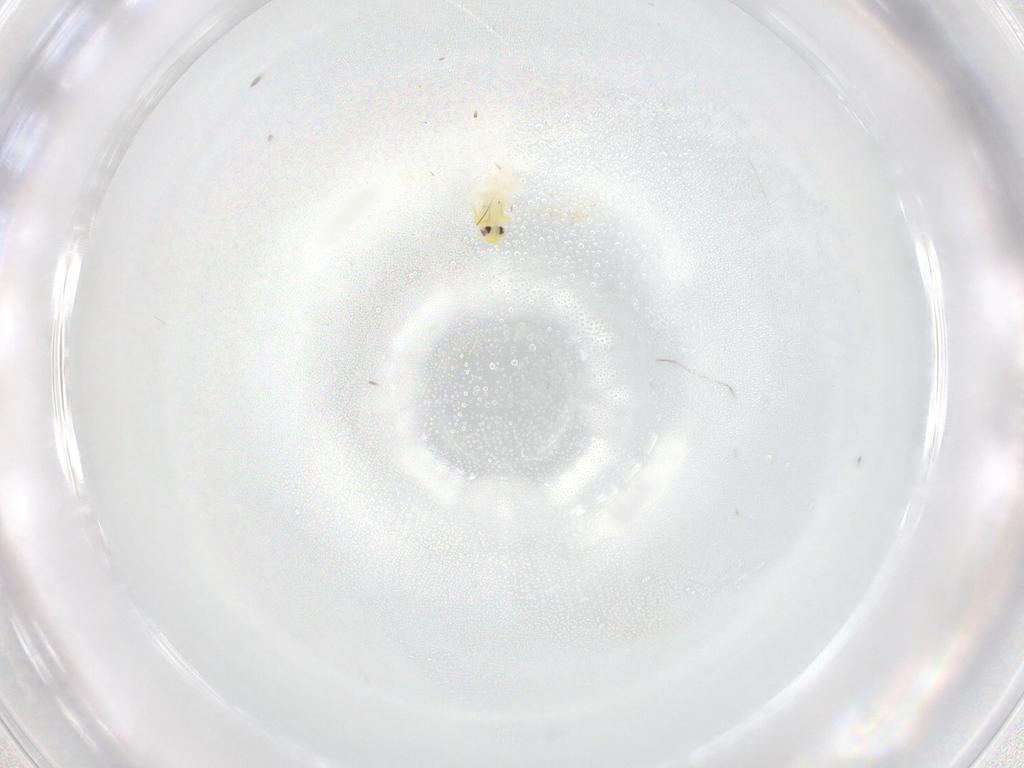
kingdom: Animalia
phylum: Arthropoda
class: Insecta
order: Hemiptera
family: Aleyrodidae
